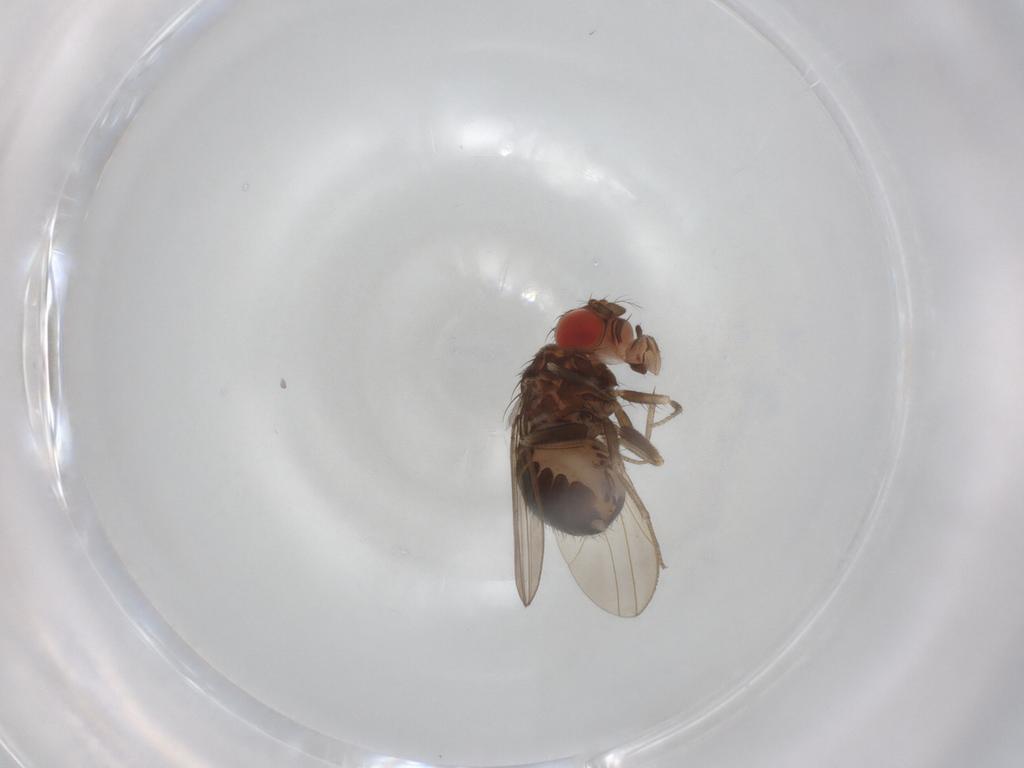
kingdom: Animalia
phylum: Arthropoda
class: Insecta
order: Diptera
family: Drosophilidae
